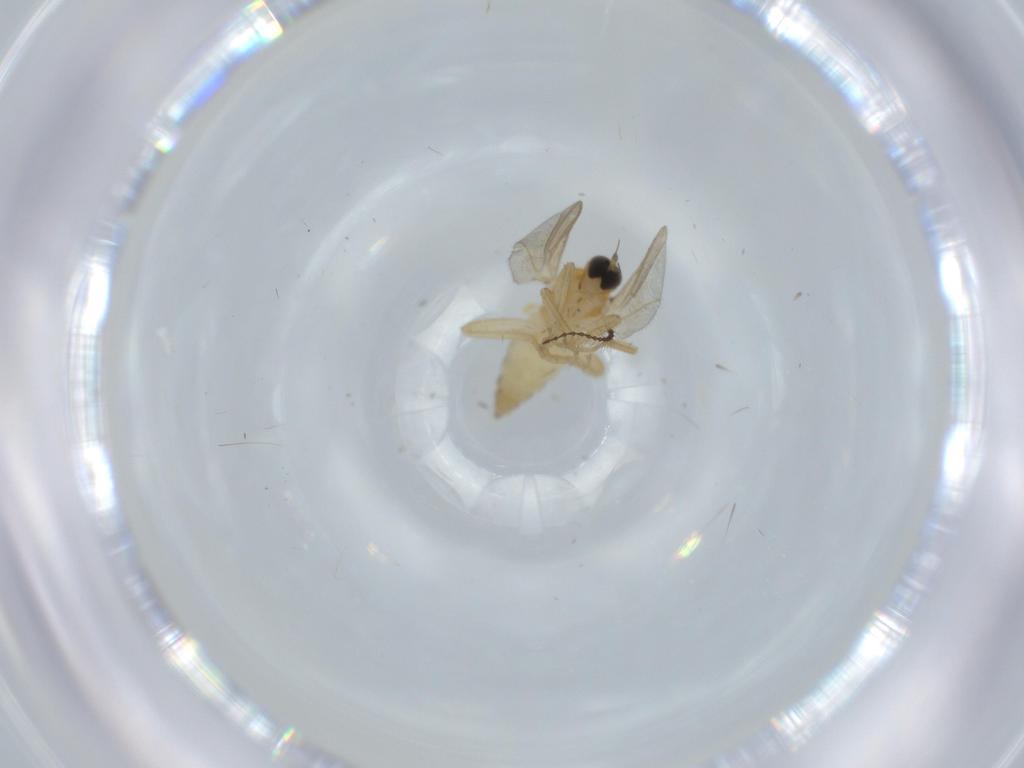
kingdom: Animalia
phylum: Arthropoda
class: Insecta
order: Diptera
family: Hybotidae
